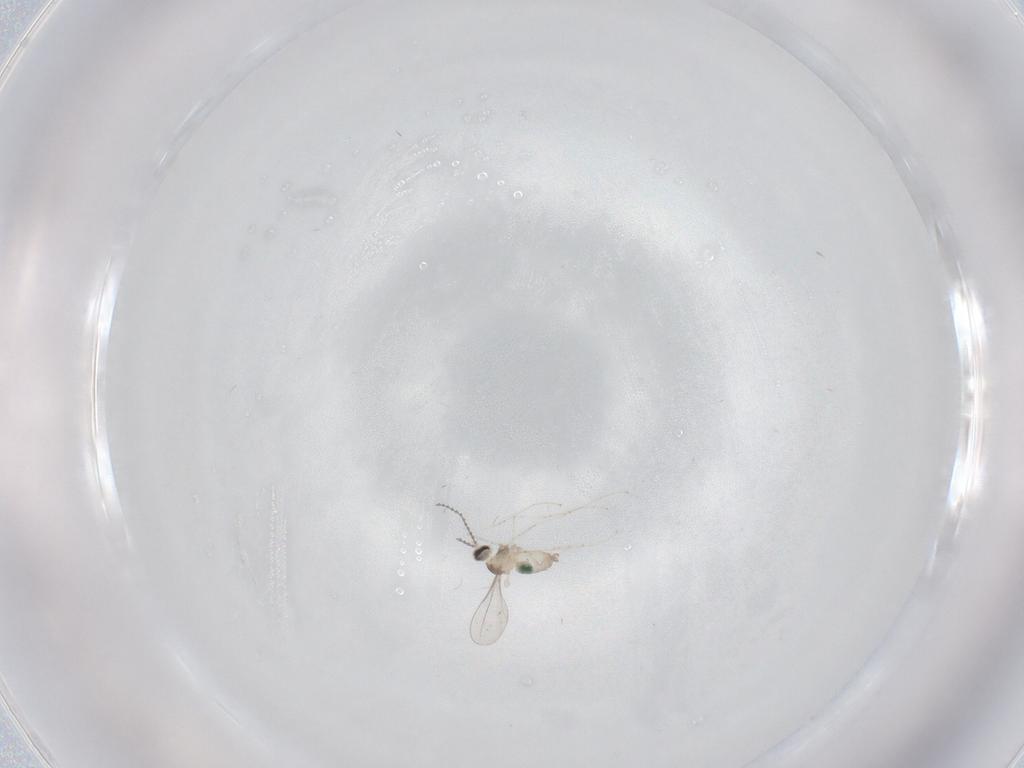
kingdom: Animalia
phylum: Arthropoda
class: Insecta
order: Diptera
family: Cecidomyiidae
